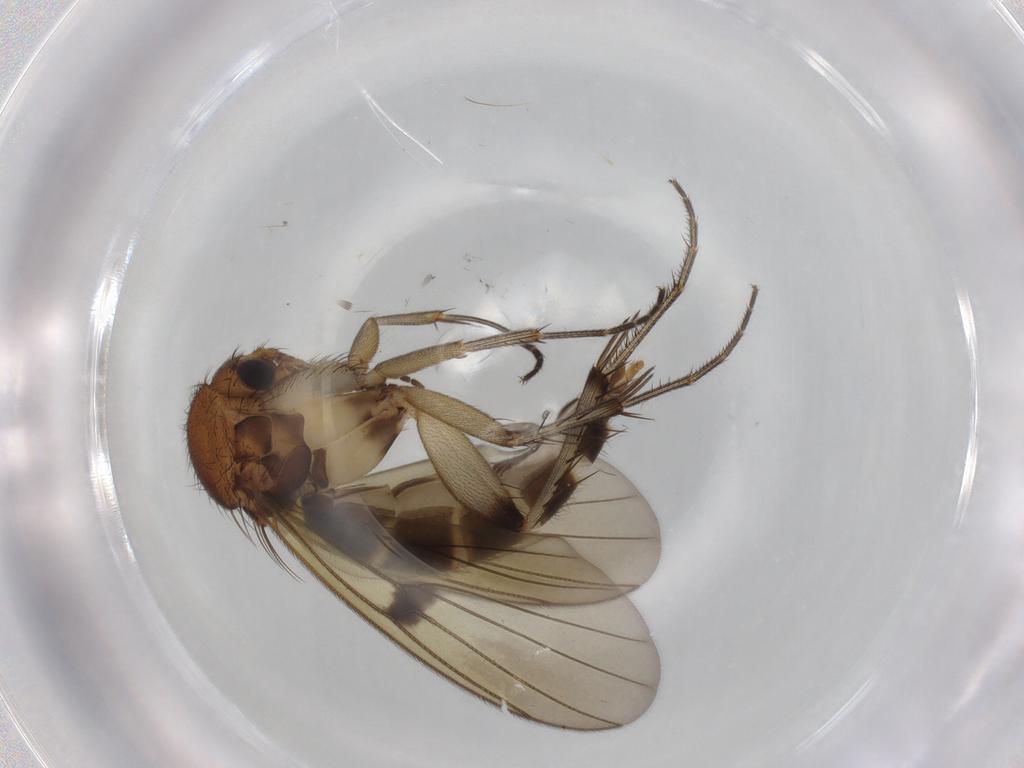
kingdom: Animalia
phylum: Arthropoda
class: Insecta
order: Diptera
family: Mycetophilidae
